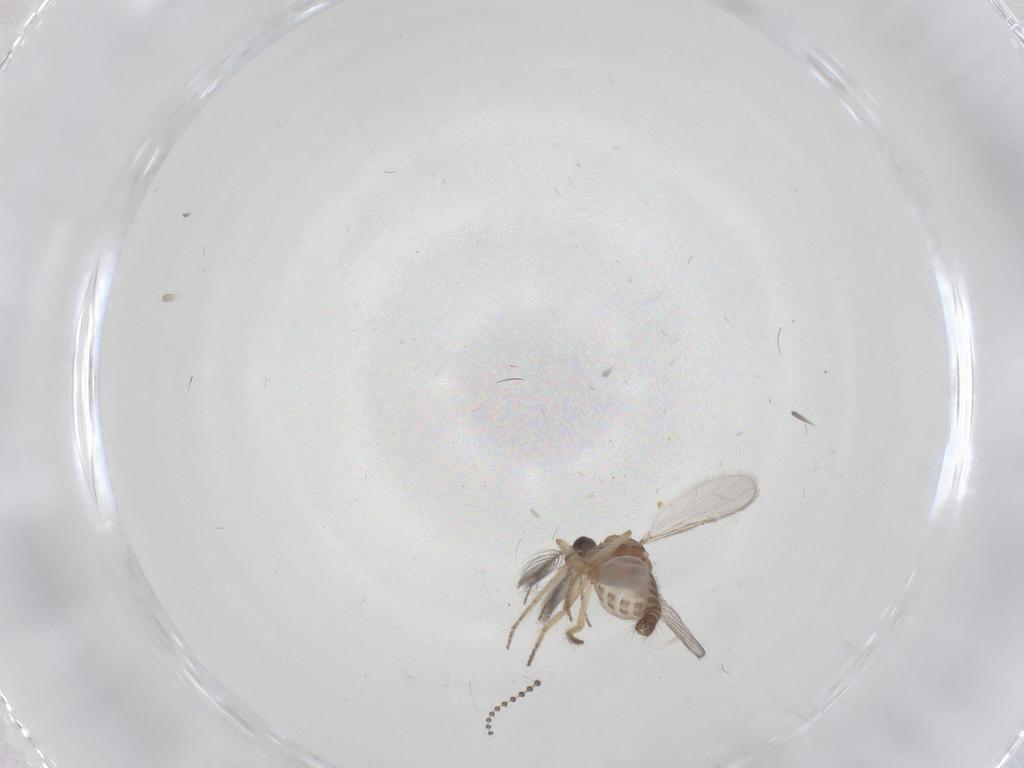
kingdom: Animalia
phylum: Arthropoda
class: Insecta
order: Diptera
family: Ceratopogonidae
